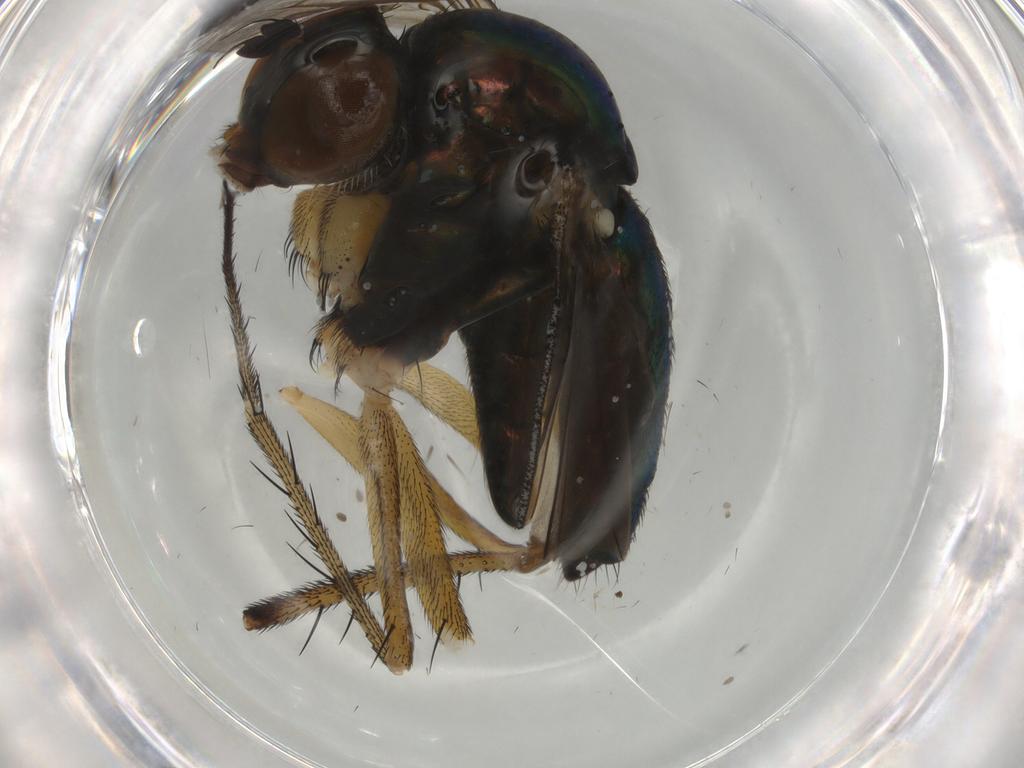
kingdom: Animalia
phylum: Arthropoda
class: Insecta
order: Diptera
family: Dolichopodidae
